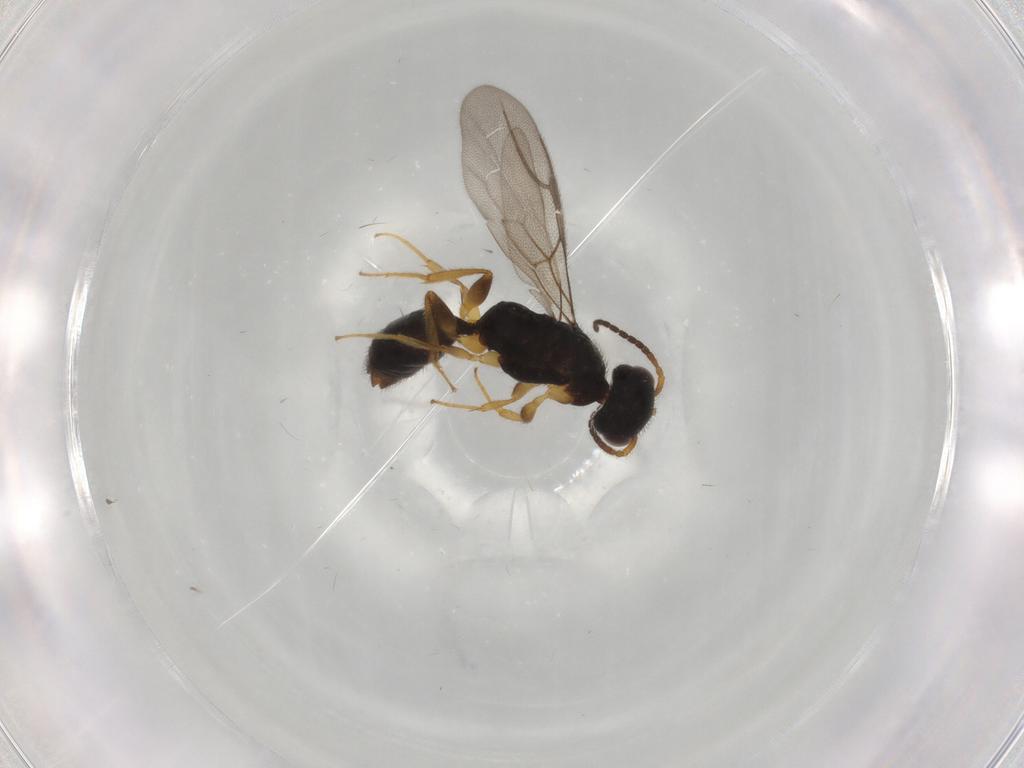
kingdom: Animalia
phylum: Arthropoda
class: Insecta
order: Hymenoptera
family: Bethylidae
